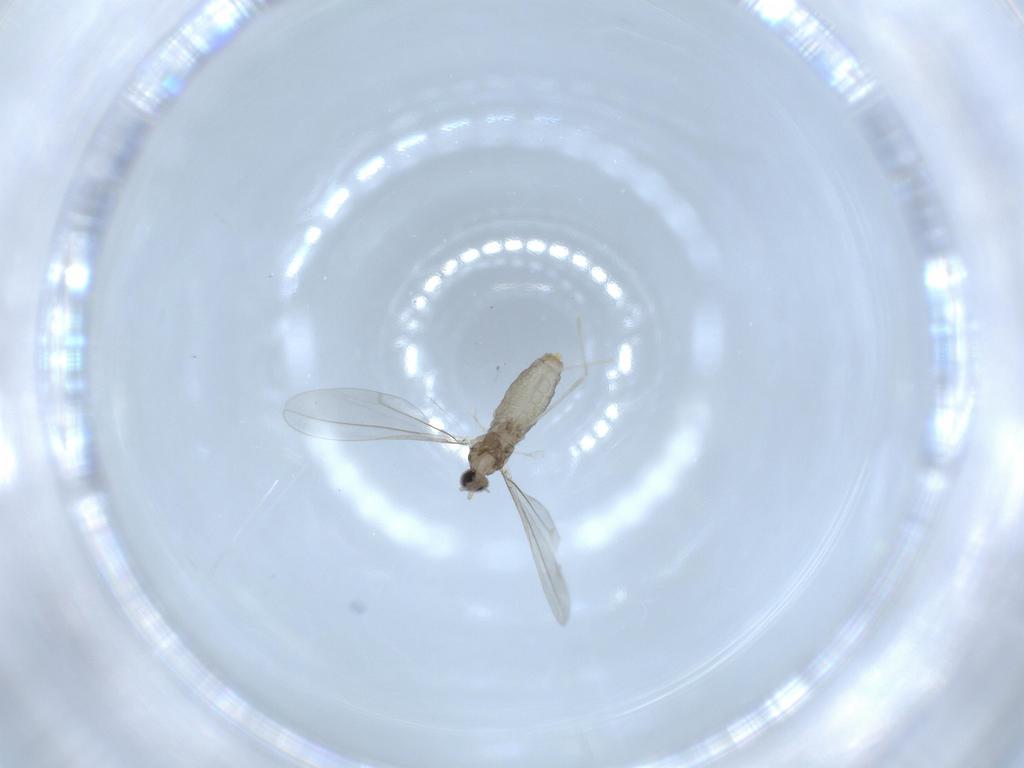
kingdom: Animalia
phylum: Arthropoda
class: Insecta
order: Diptera
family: Cecidomyiidae
